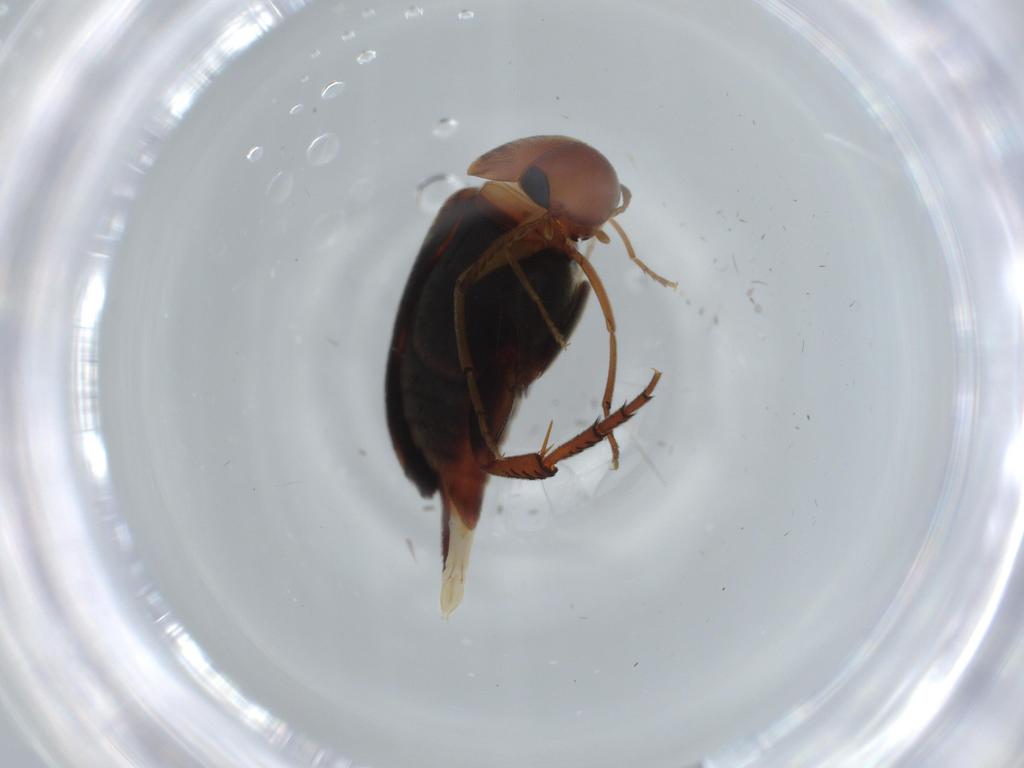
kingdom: Animalia
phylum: Arthropoda
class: Insecta
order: Coleoptera
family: Mordellidae
